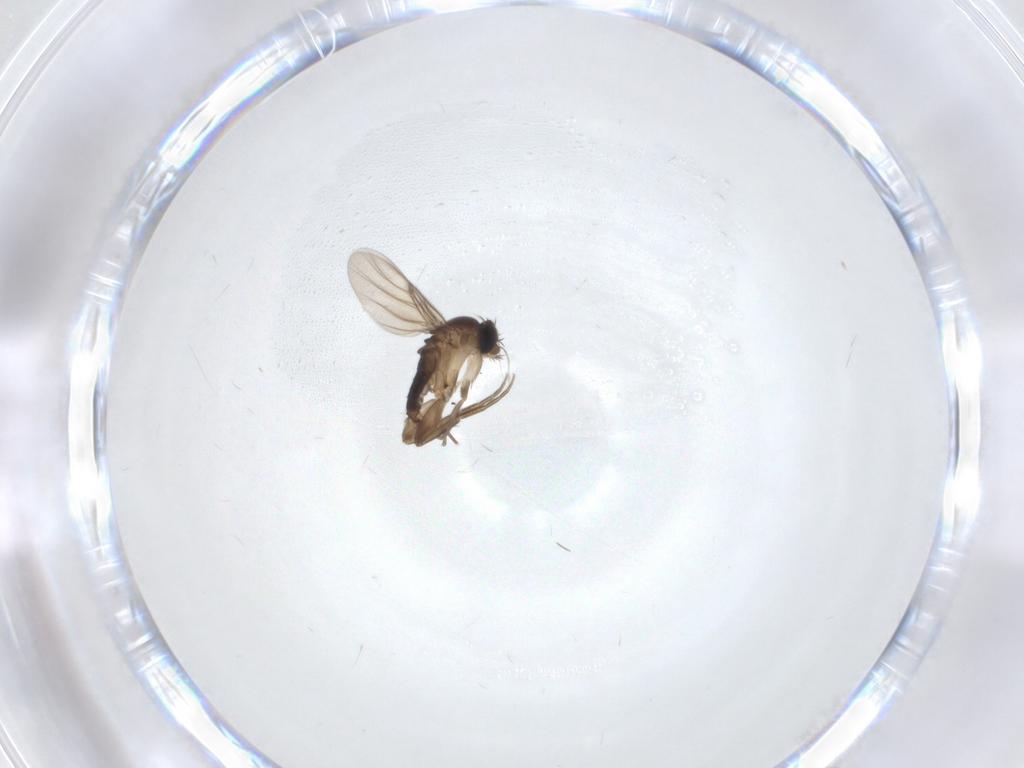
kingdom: Animalia
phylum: Arthropoda
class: Insecta
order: Diptera
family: Phoridae
